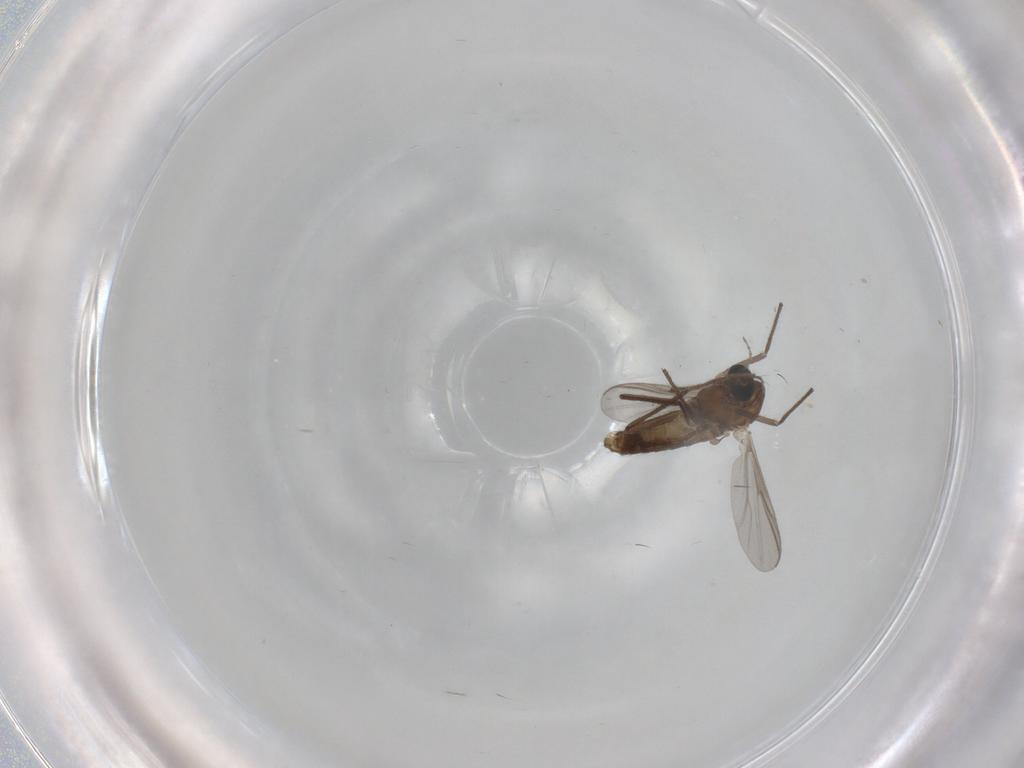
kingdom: Animalia
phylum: Arthropoda
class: Insecta
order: Diptera
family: Chironomidae
